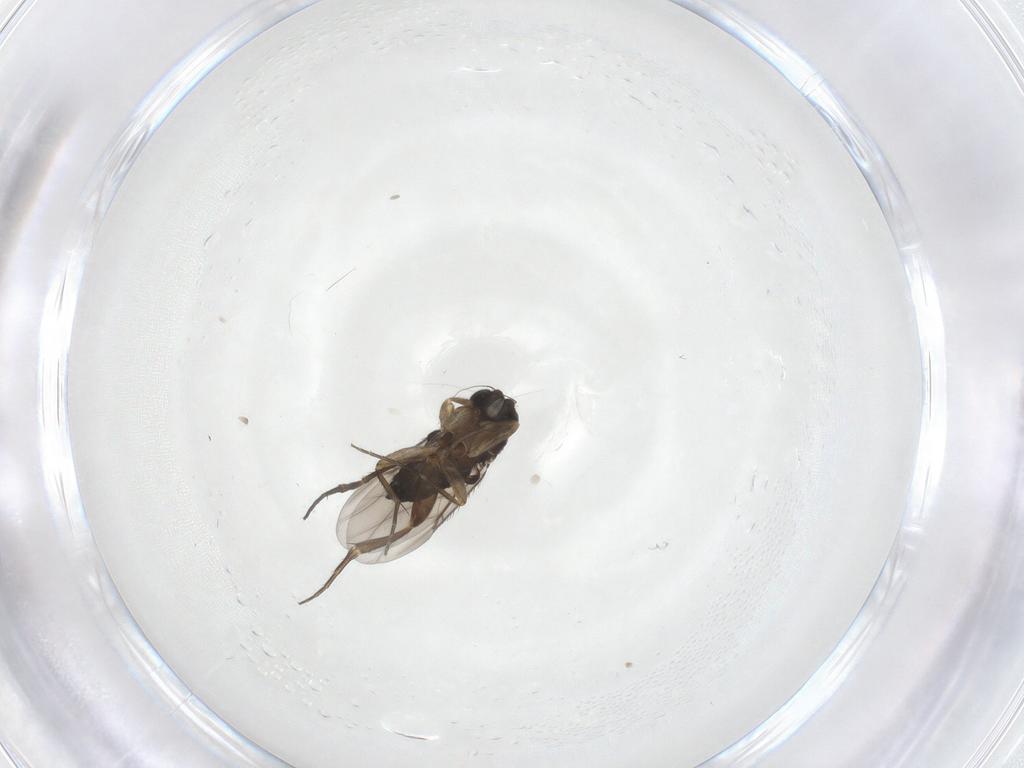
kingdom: Animalia
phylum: Arthropoda
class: Insecta
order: Diptera
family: Phoridae
